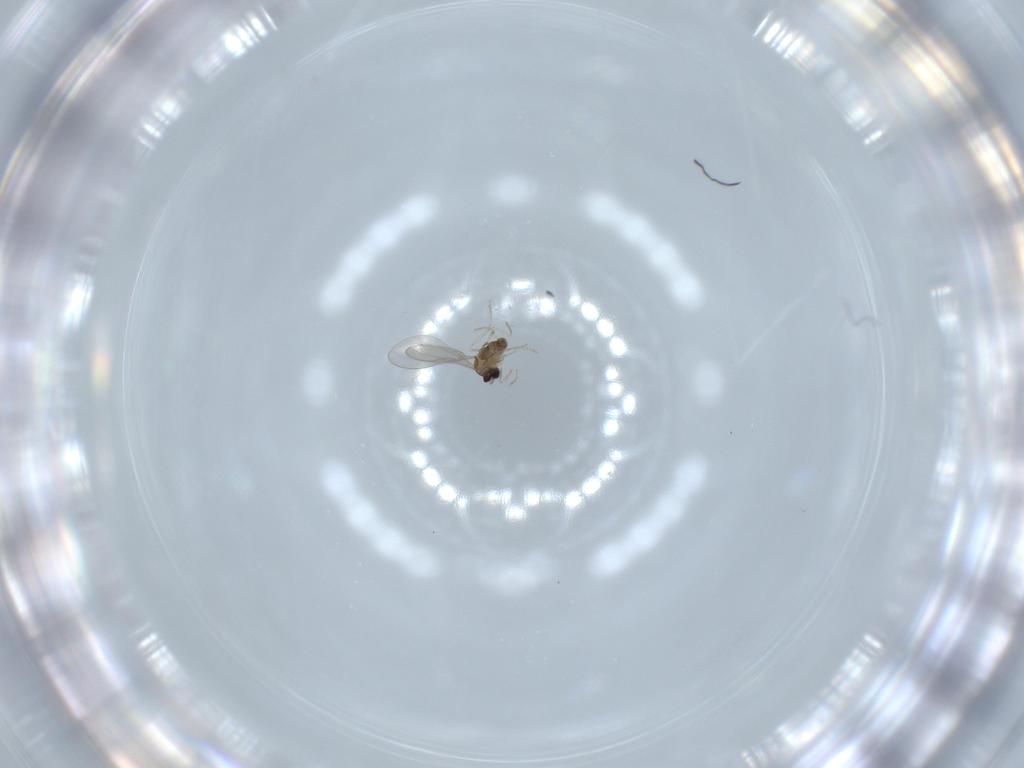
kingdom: Animalia
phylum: Arthropoda
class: Insecta
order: Diptera
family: Cecidomyiidae
